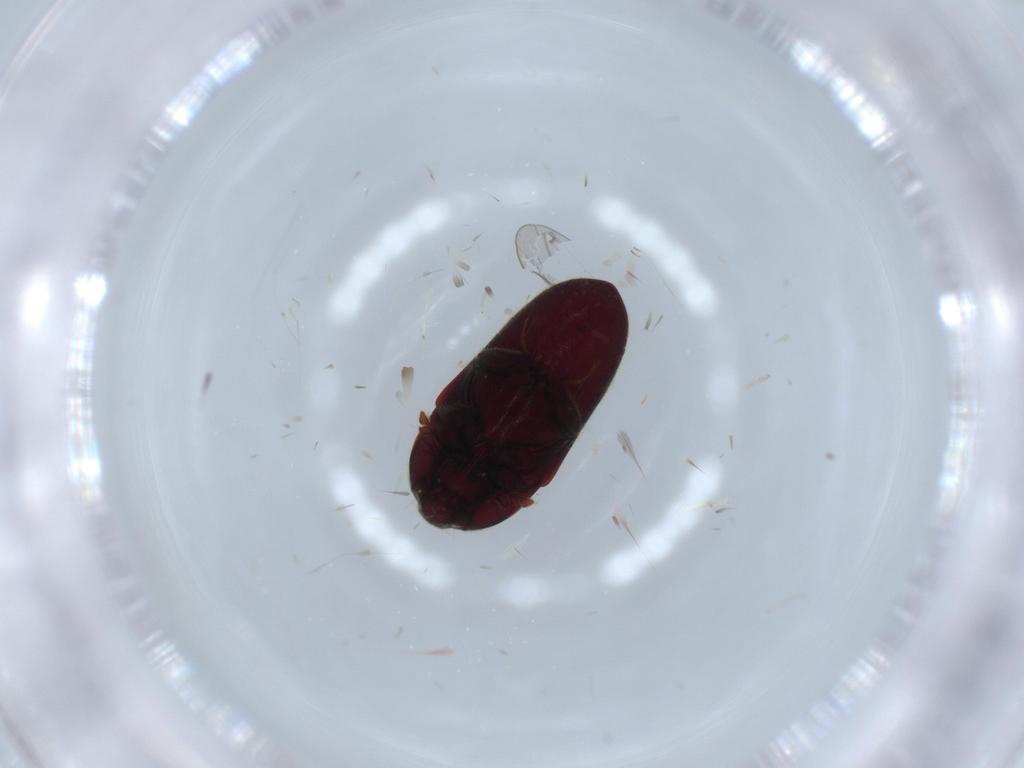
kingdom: Animalia
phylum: Arthropoda
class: Insecta
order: Coleoptera
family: Throscidae
